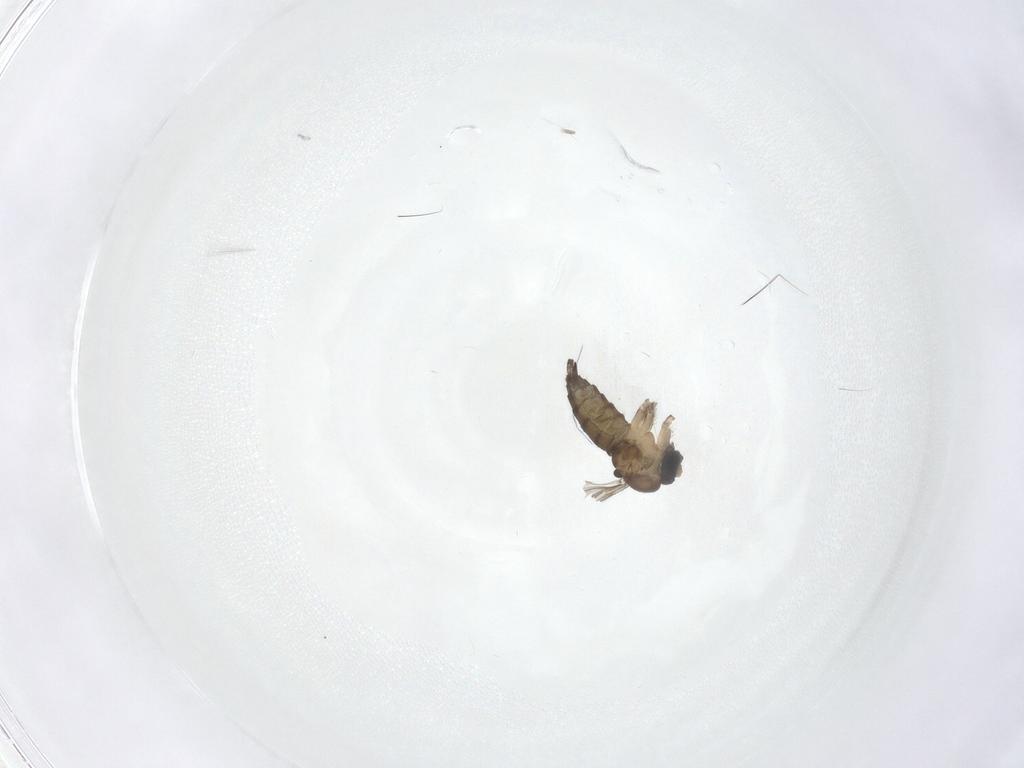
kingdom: Animalia
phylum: Arthropoda
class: Insecta
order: Diptera
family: Sciaridae
